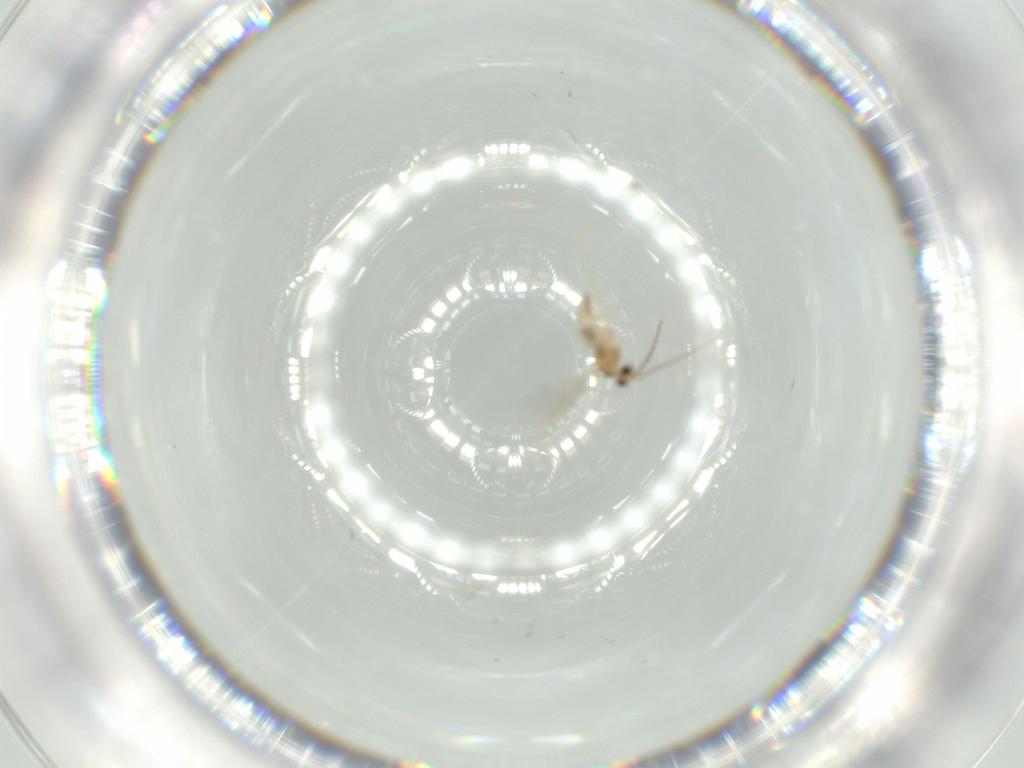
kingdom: Animalia
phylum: Arthropoda
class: Insecta
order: Diptera
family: Cecidomyiidae
